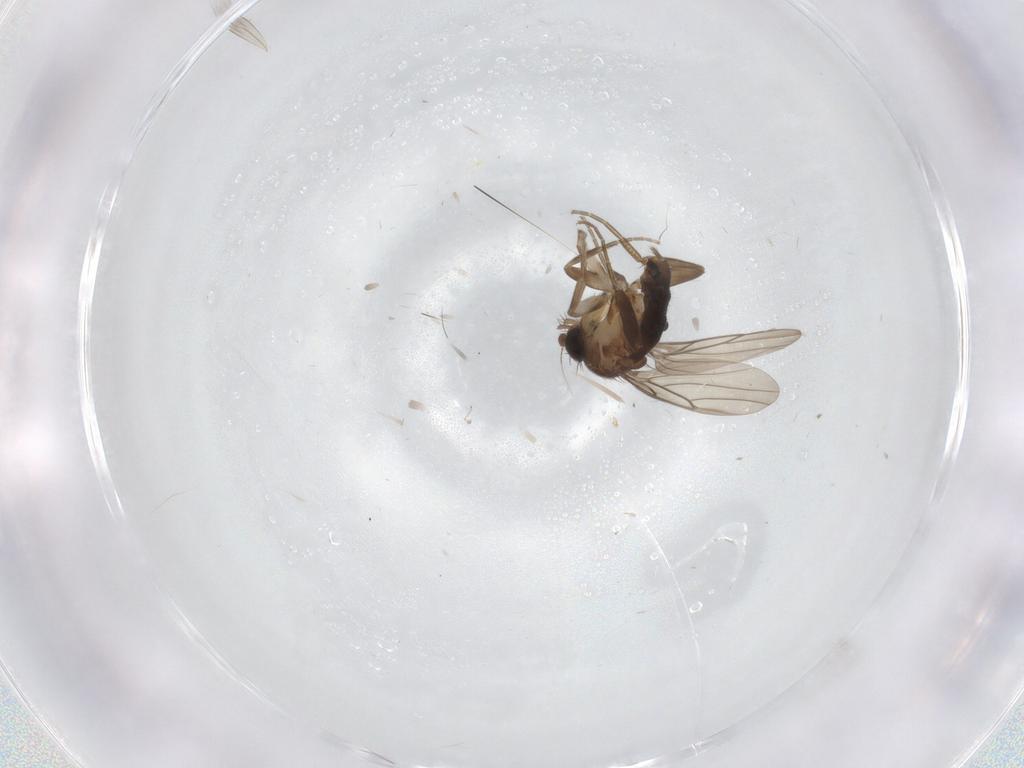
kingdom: Animalia
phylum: Arthropoda
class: Insecta
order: Diptera
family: Phoridae
